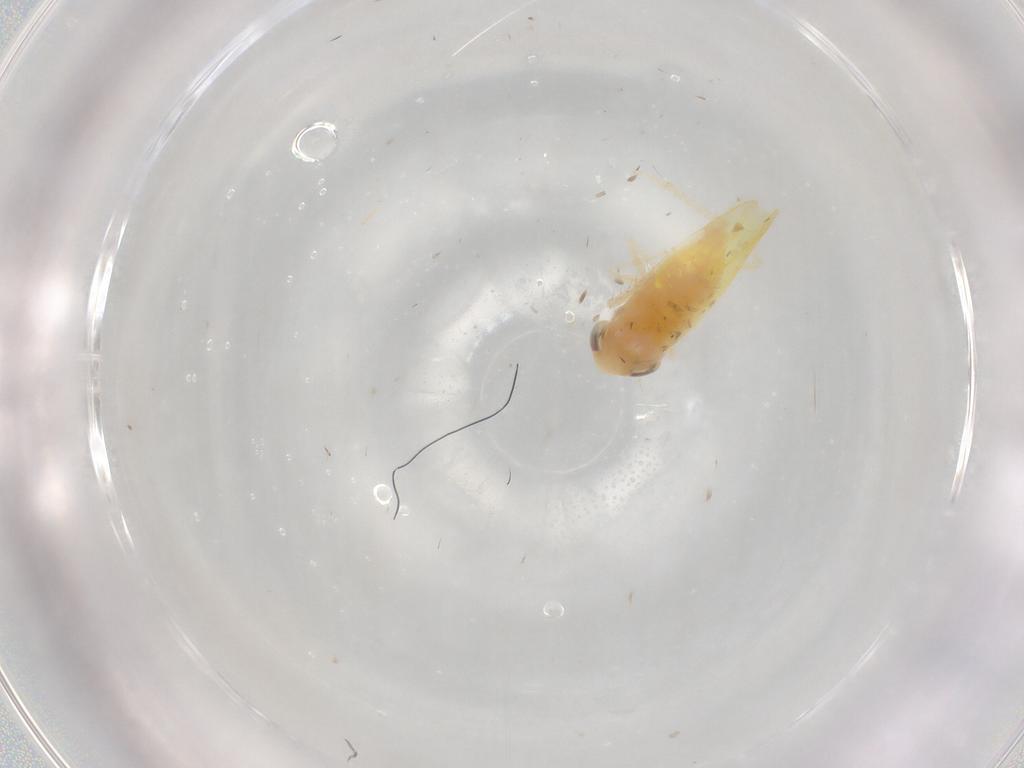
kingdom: Animalia
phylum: Arthropoda
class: Insecta
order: Hemiptera
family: Cicadellidae
